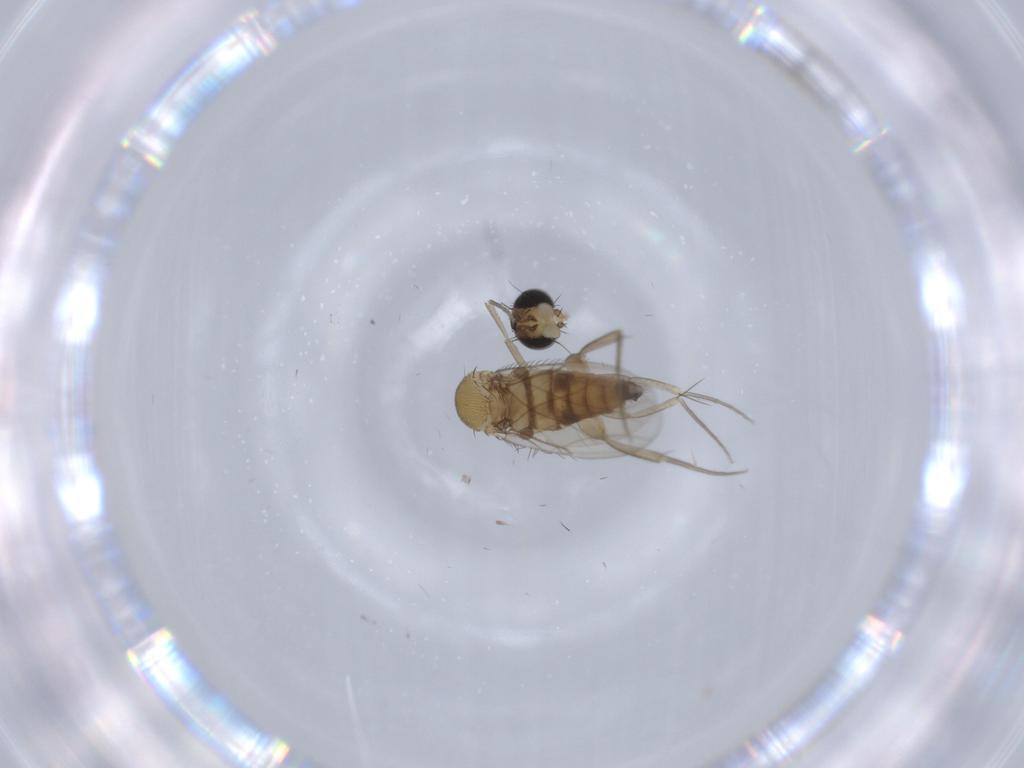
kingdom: Animalia
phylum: Arthropoda
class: Insecta
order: Diptera
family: Phoridae
